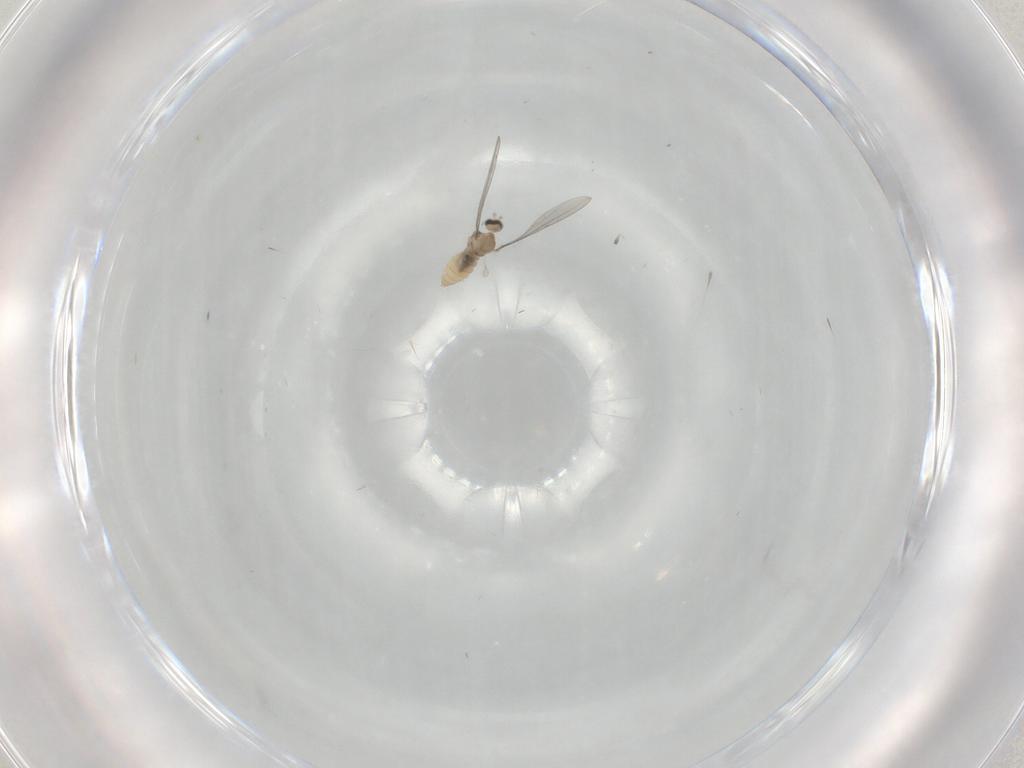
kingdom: Animalia
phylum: Arthropoda
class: Insecta
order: Diptera
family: Cecidomyiidae
